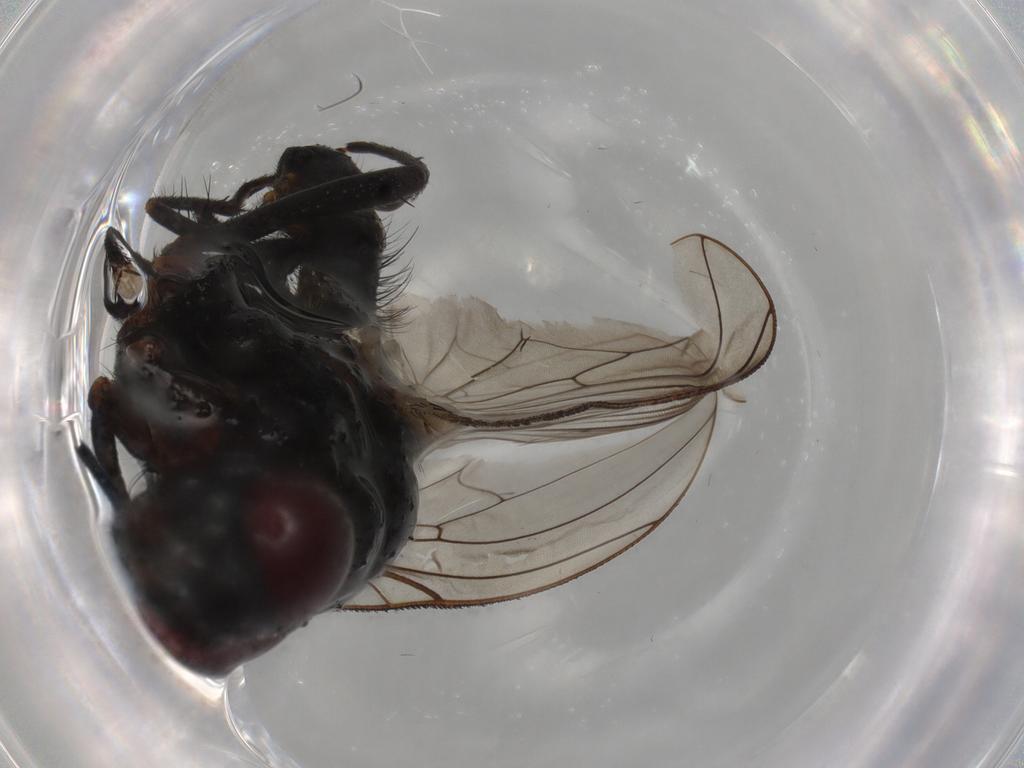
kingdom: Animalia
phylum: Arthropoda
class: Insecta
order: Diptera
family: Anthomyiidae
